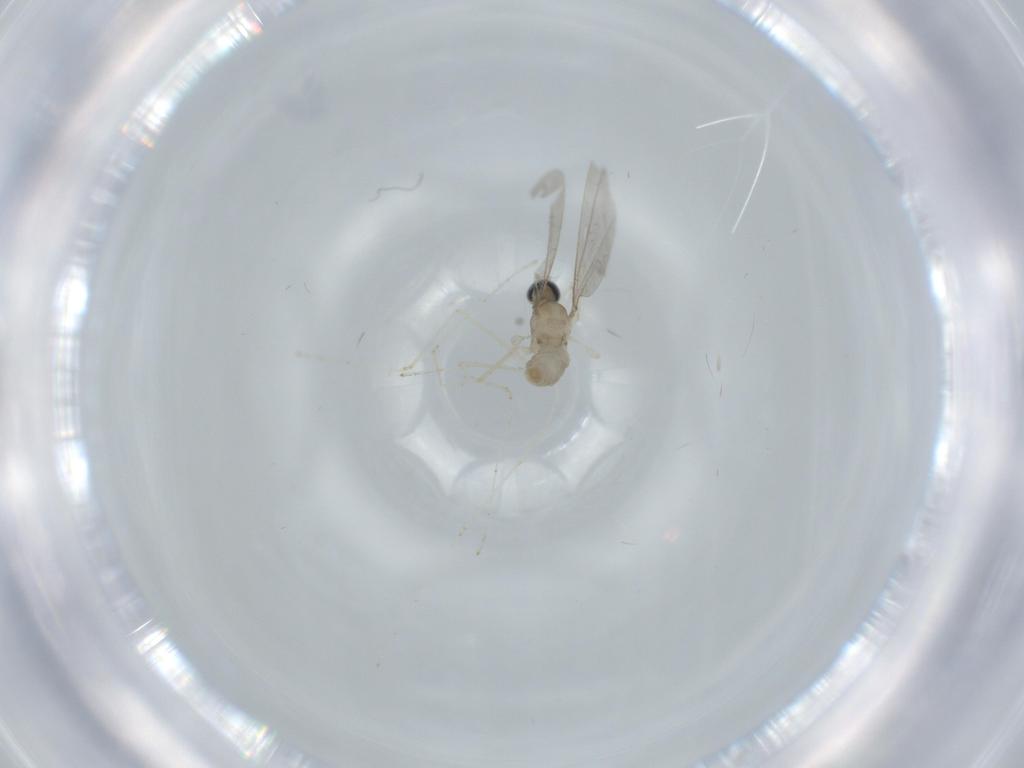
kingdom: Animalia
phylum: Arthropoda
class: Insecta
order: Diptera
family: Cecidomyiidae
